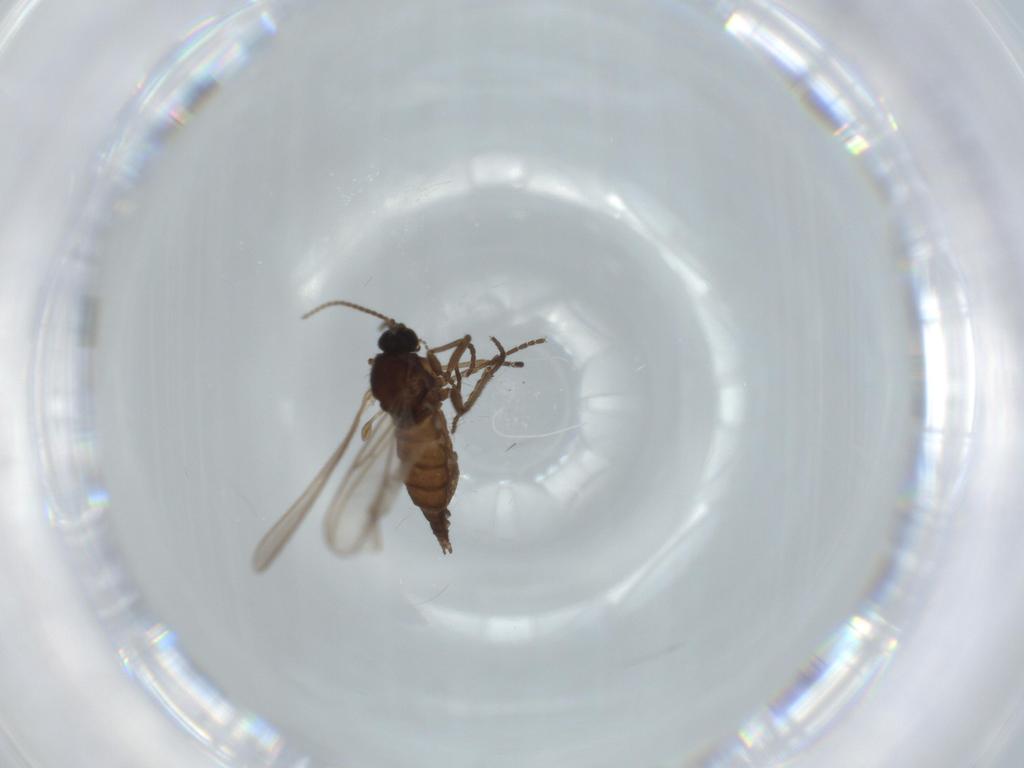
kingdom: Animalia
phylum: Arthropoda
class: Insecta
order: Diptera
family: Sciaridae
